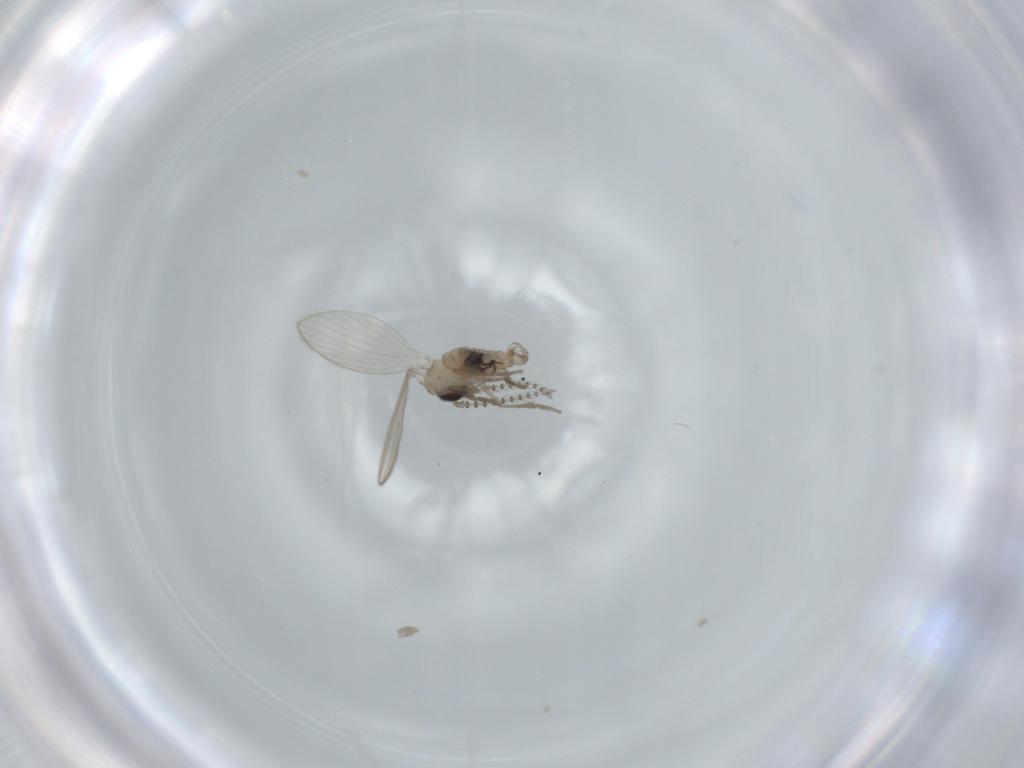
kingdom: Animalia
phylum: Arthropoda
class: Insecta
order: Diptera
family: Psychodidae
